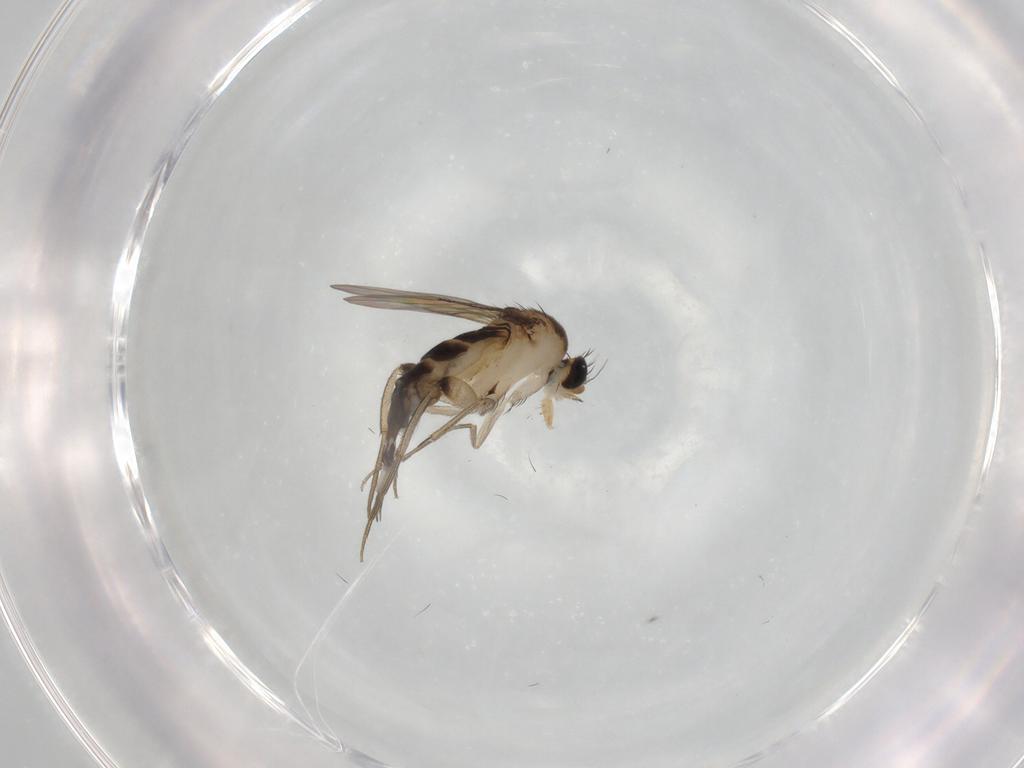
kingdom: Animalia
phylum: Arthropoda
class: Insecta
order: Diptera
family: Phoridae
